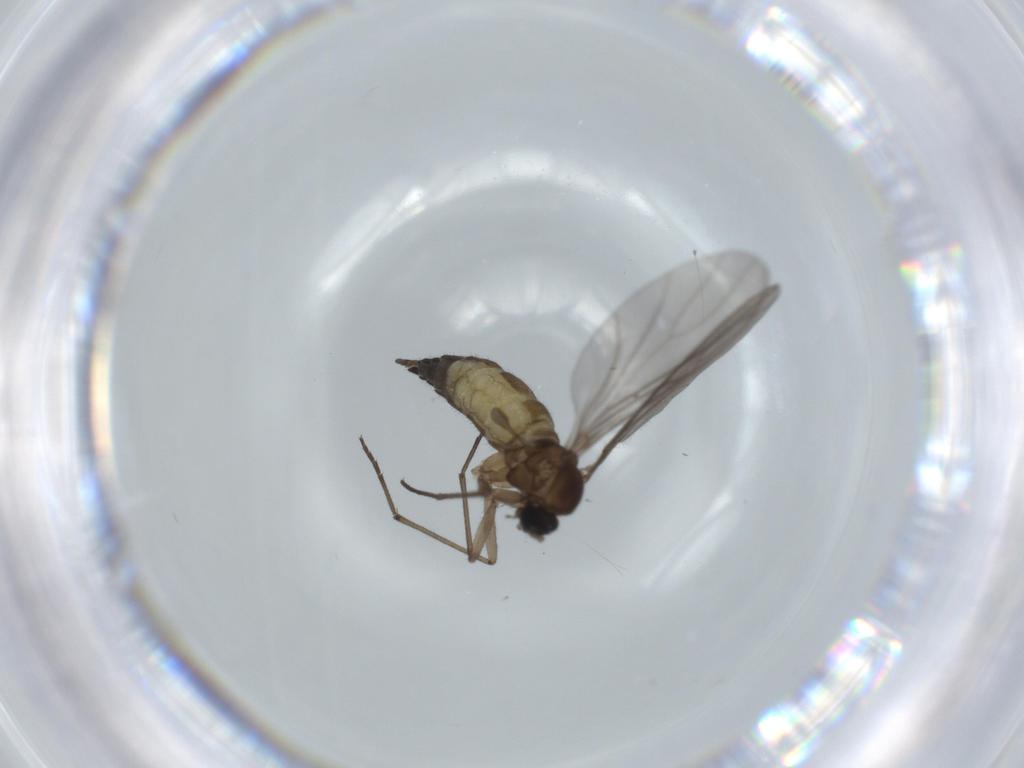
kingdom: Animalia
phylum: Arthropoda
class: Insecta
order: Diptera
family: Sciaridae
